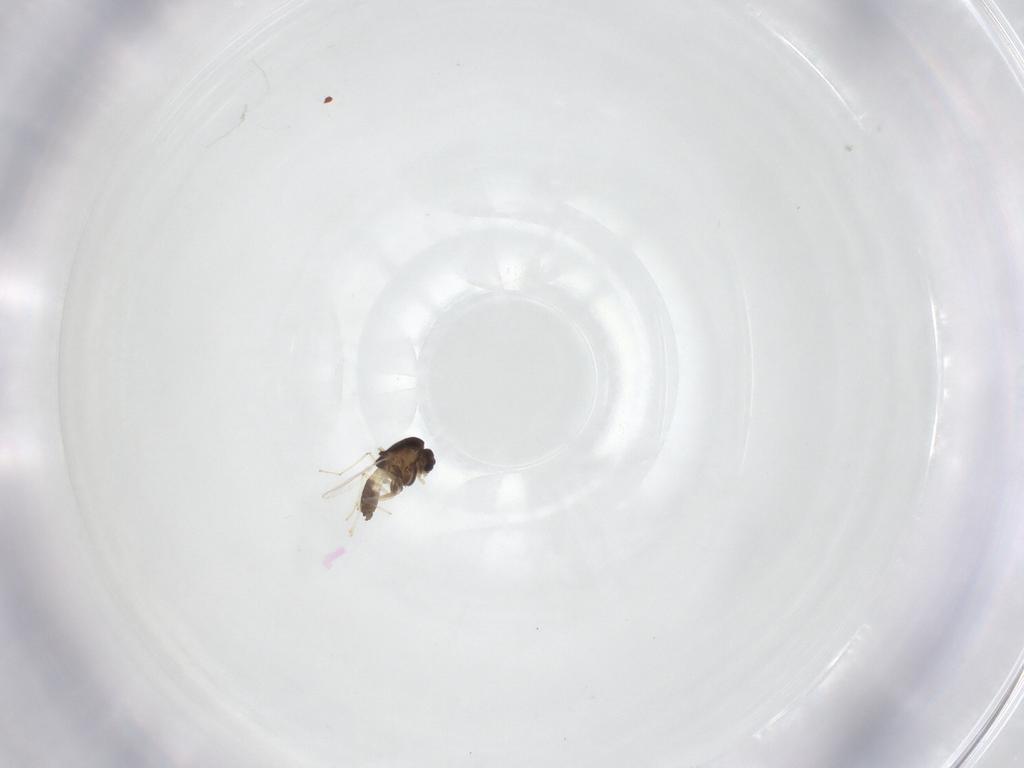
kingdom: Animalia
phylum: Arthropoda
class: Insecta
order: Diptera
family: Chironomidae
